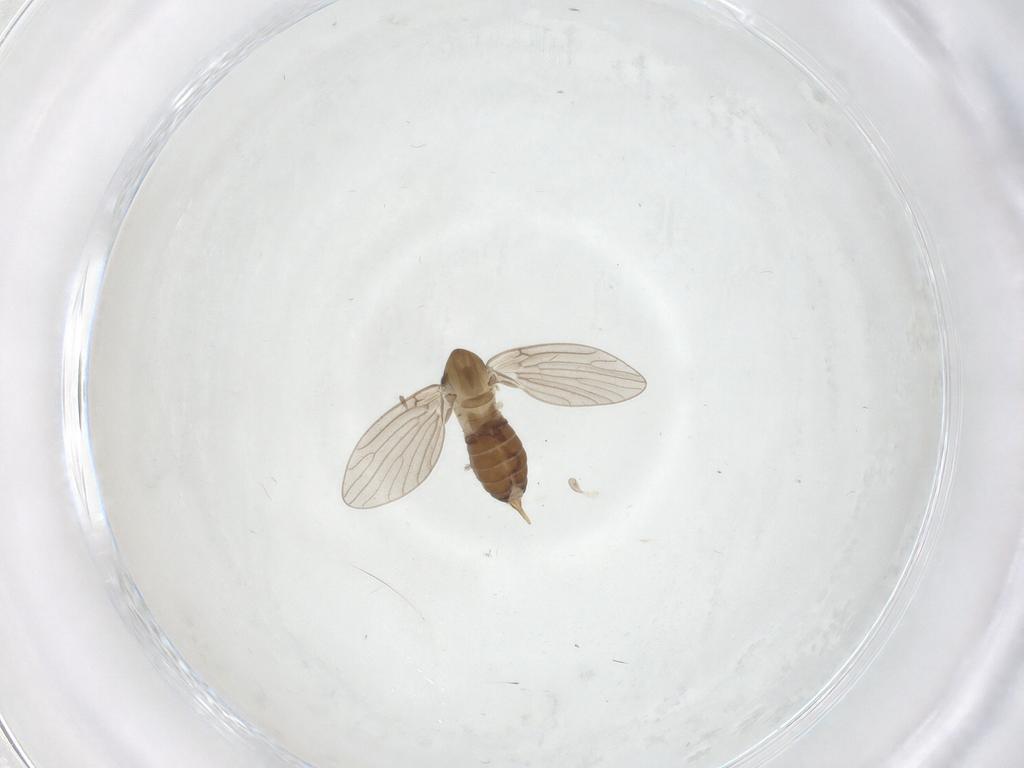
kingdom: Animalia
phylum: Arthropoda
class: Insecta
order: Diptera
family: Psychodidae
